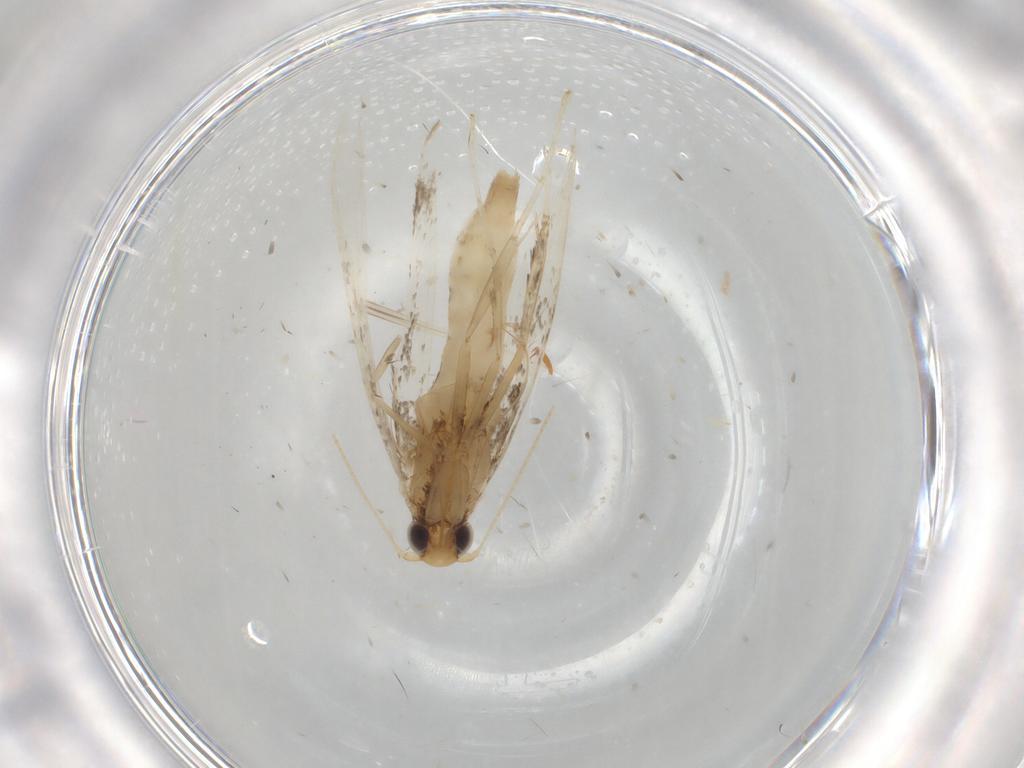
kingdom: Animalia
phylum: Arthropoda
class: Insecta
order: Lepidoptera
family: Gracillariidae
